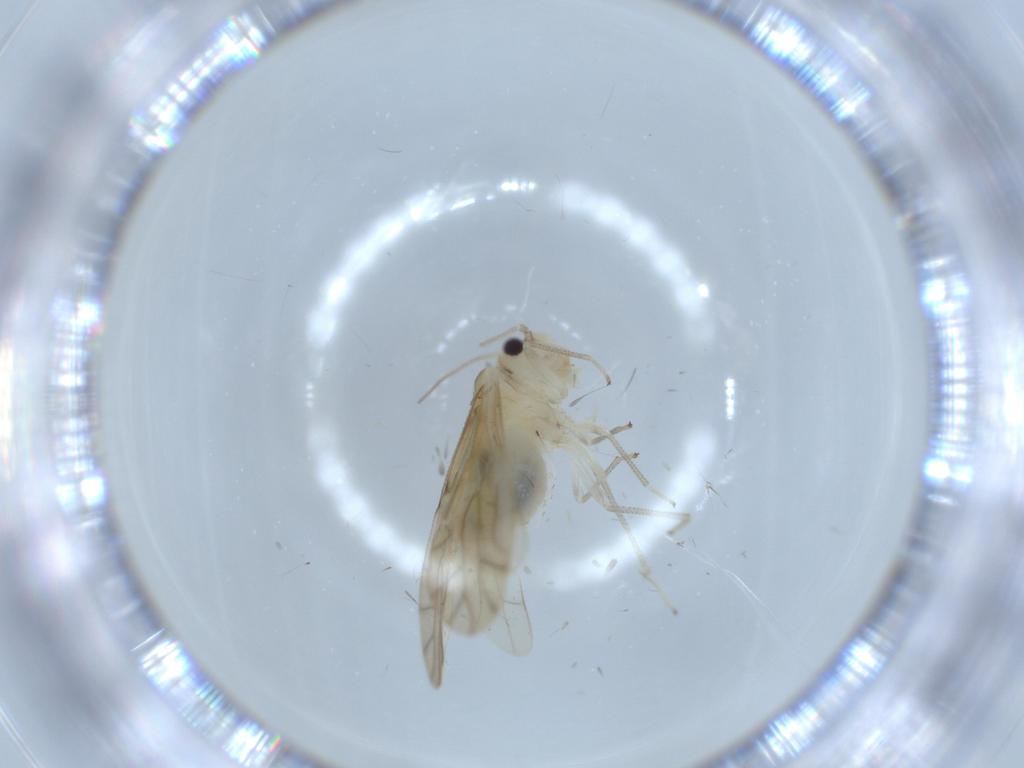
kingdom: Animalia
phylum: Arthropoda
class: Insecta
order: Psocodea
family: Caeciliusidae
